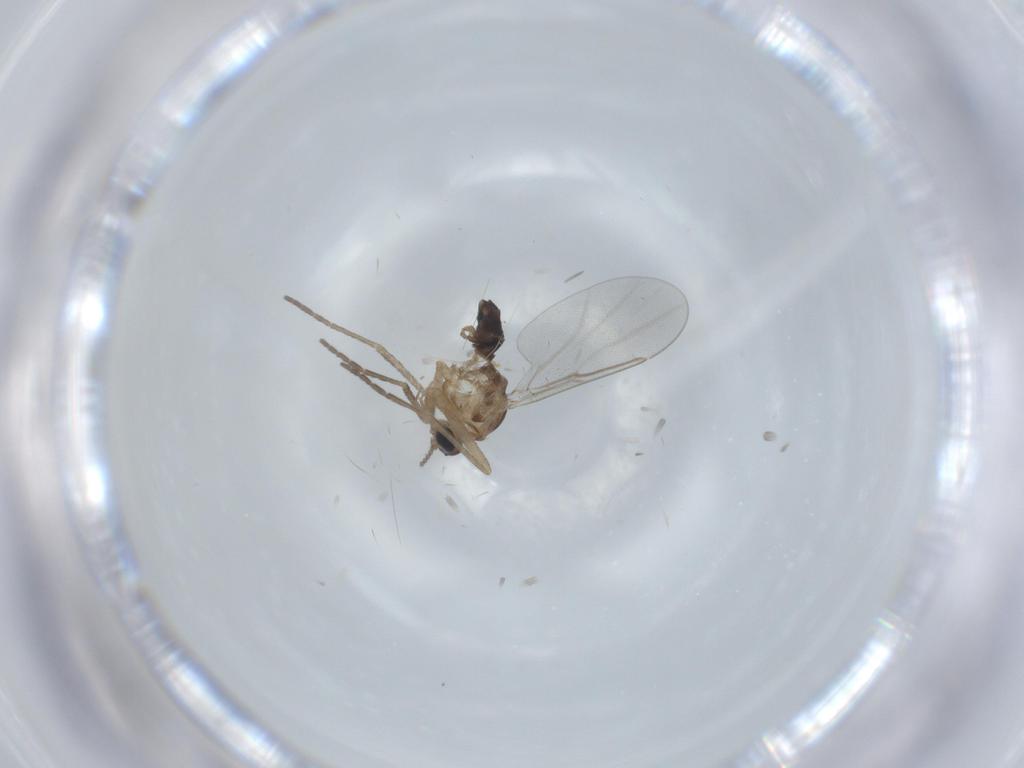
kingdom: Animalia
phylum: Arthropoda
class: Insecta
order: Diptera
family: Cecidomyiidae
